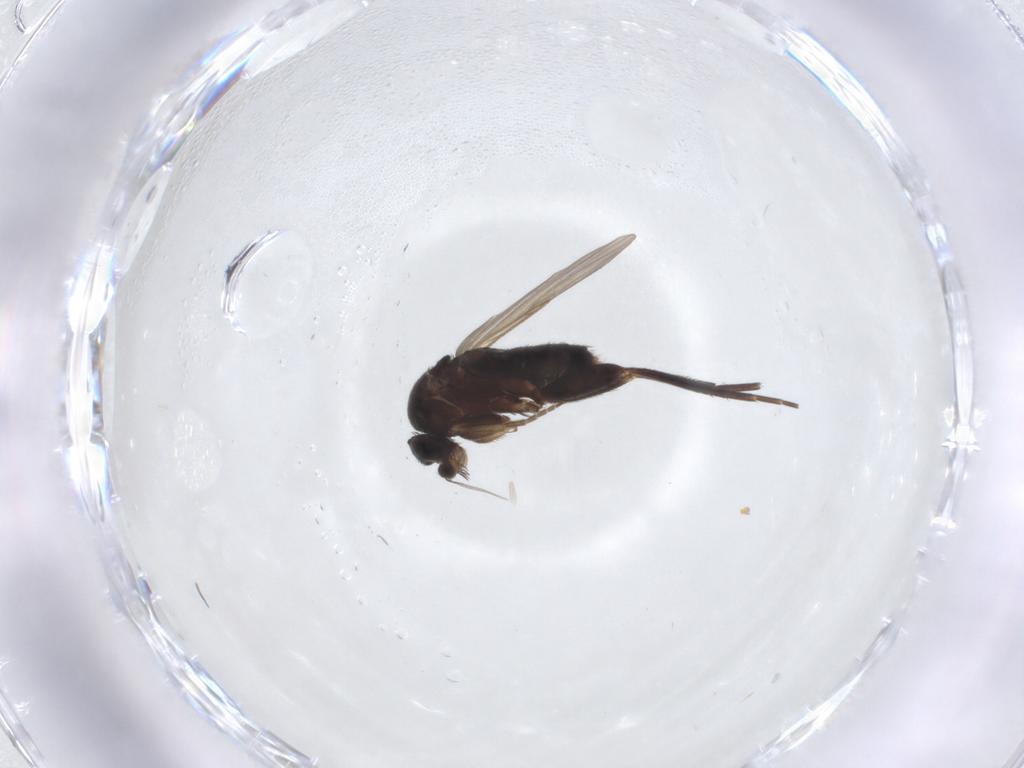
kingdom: Animalia
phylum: Arthropoda
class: Insecta
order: Diptera
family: Phoridae
